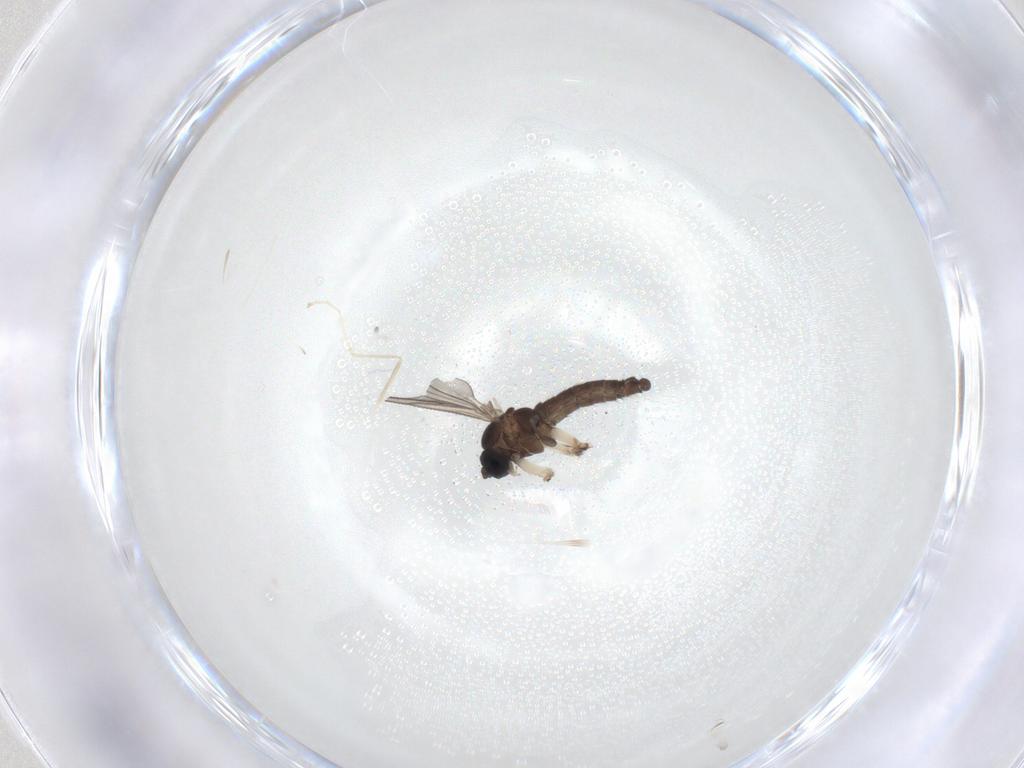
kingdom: Animalia
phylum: Arthropoda
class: Insecta
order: Diptera
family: Sciaridae
